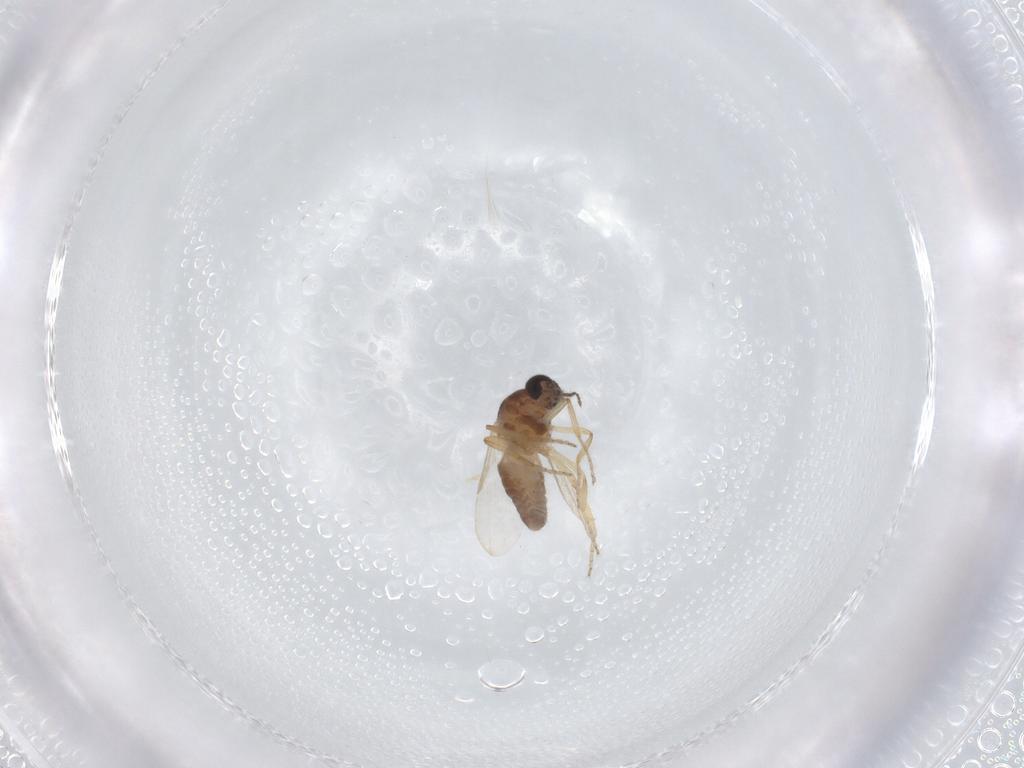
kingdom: Animalia
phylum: Arthropoda
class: Insecta
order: Diptera
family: Ceratopogonidae
